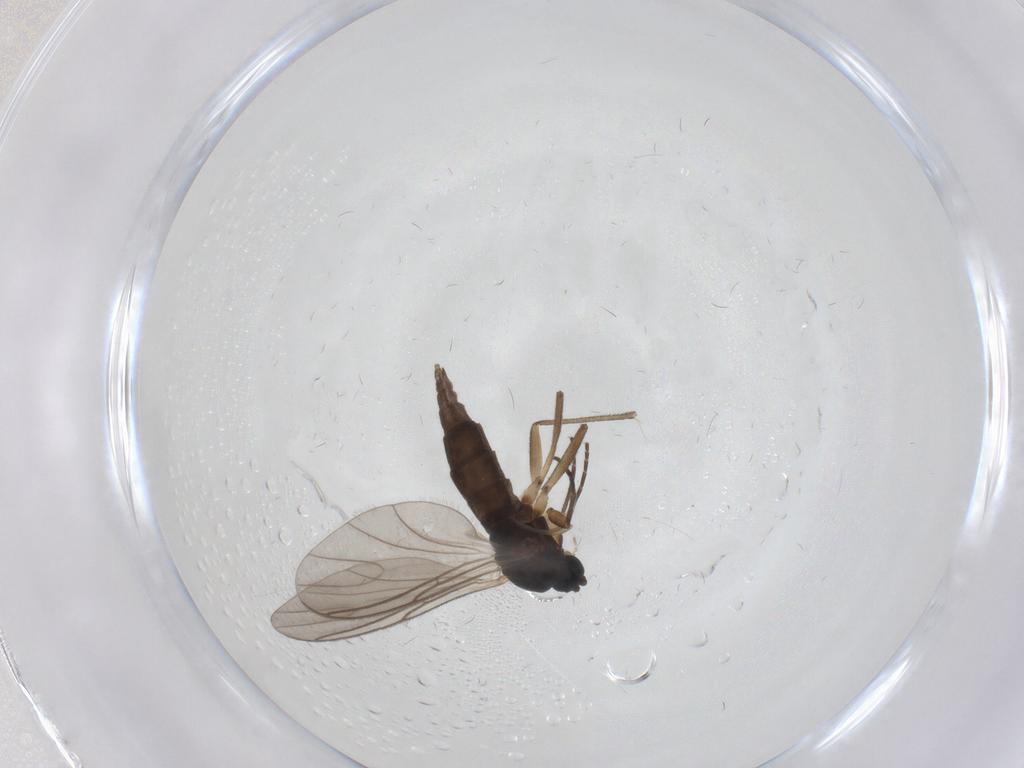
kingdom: Animalia
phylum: Arthropoda
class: Insecta
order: Diptera
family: Sciaridae
